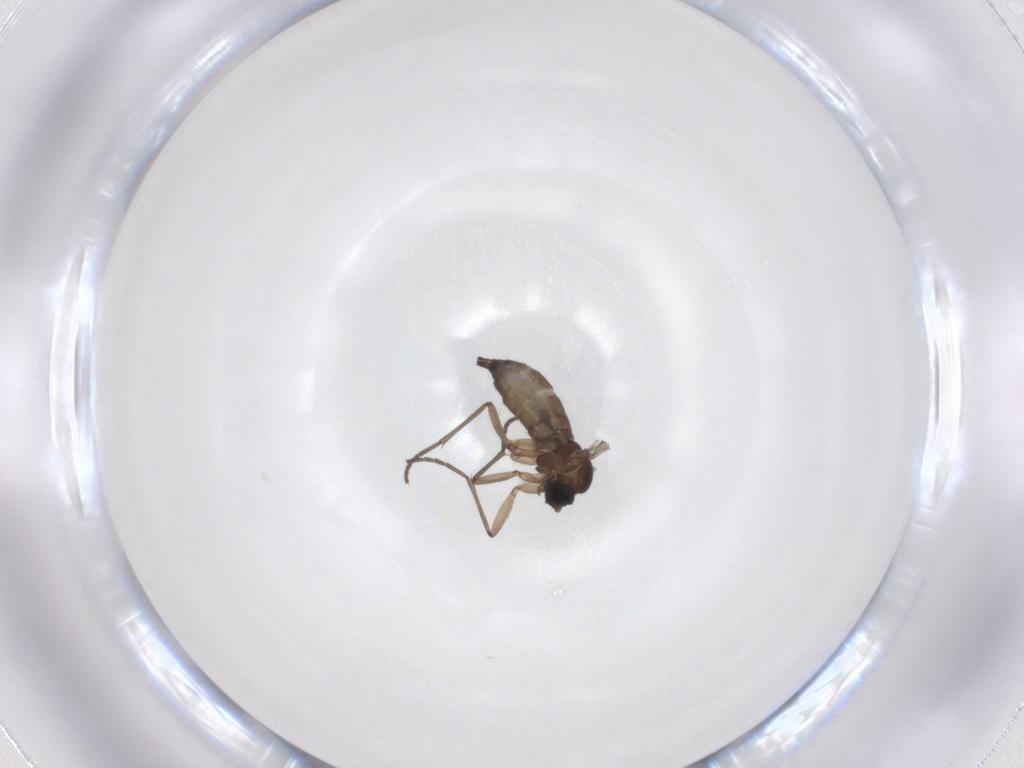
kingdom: Animalia
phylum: Arthropoda
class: Insecta
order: Diptera
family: Sciaridae
